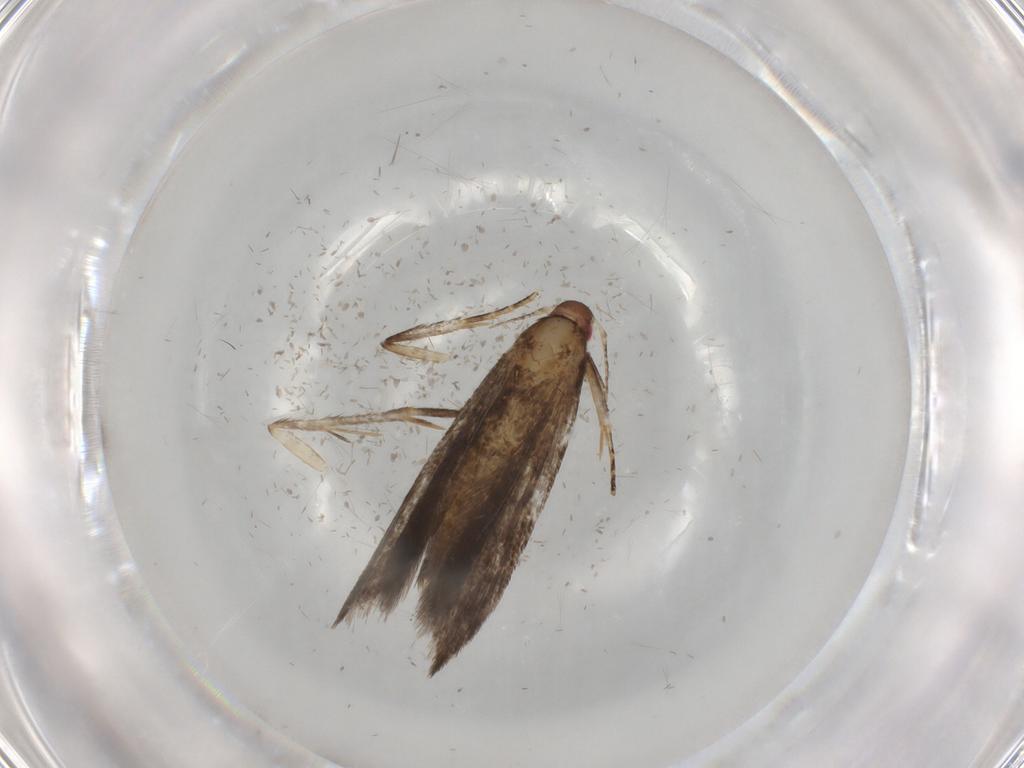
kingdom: Animalia
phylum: Arthropoda
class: Insecta
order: Lepidoptera
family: Gelechiidae
